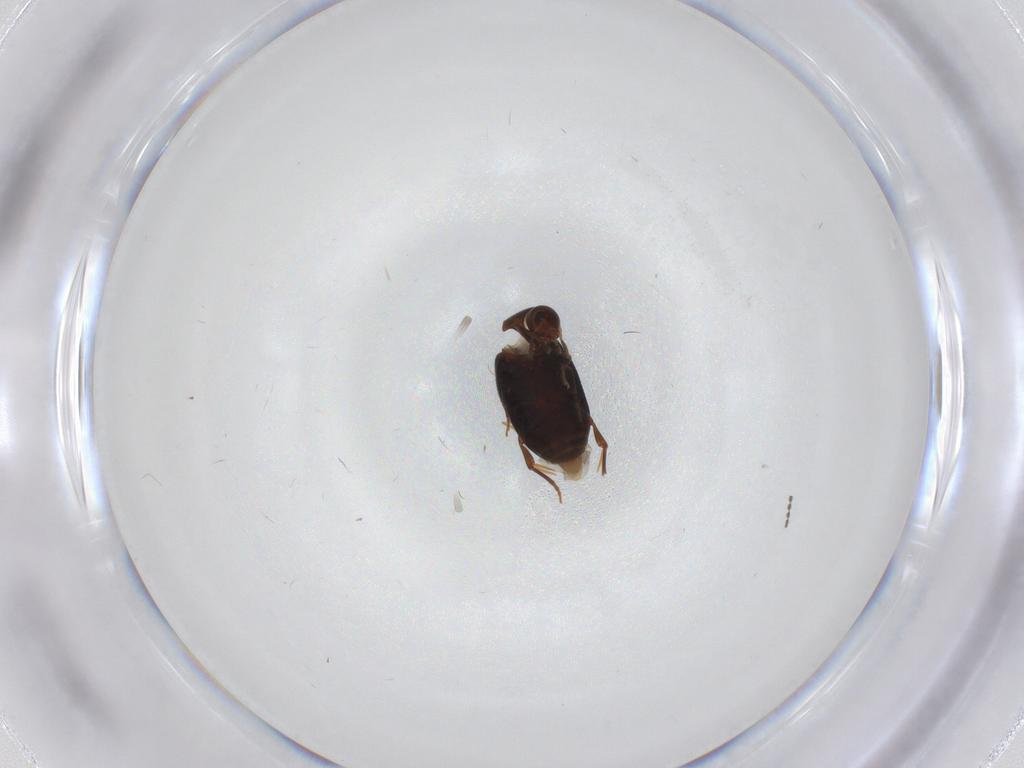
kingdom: Animalia
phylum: Arthropoda
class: Insecta
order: Coleoptera
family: Melandryidae
